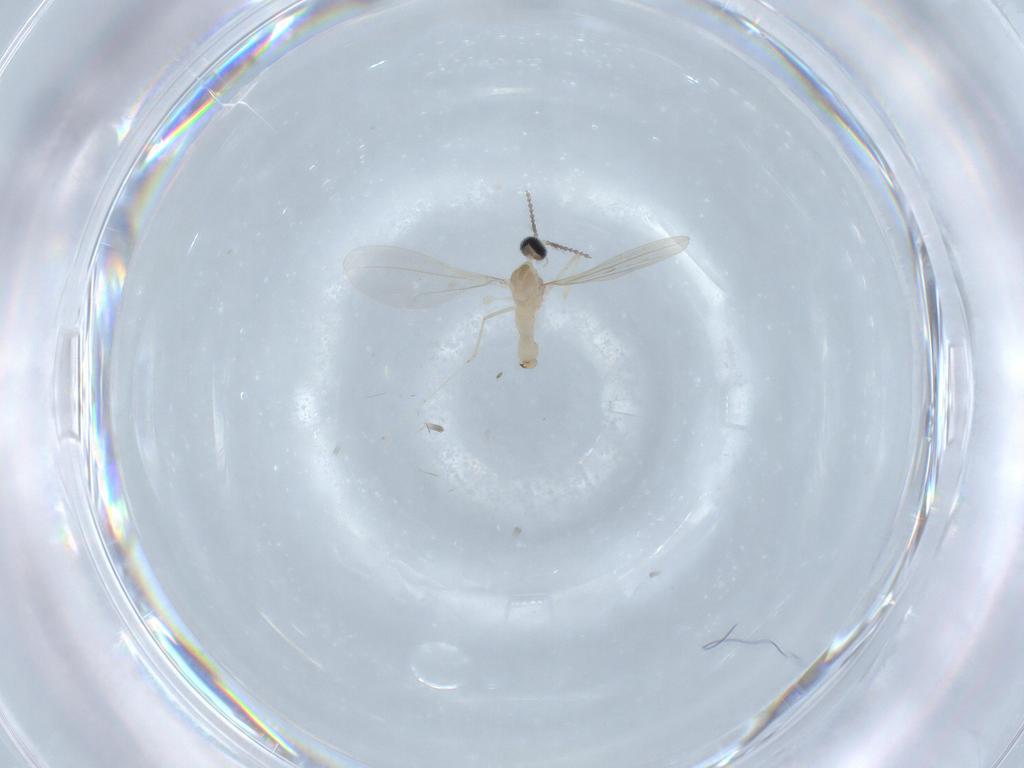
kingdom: Animalia
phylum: Arthropoda
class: Insecta
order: Diptera
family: Cecidomyiidae
